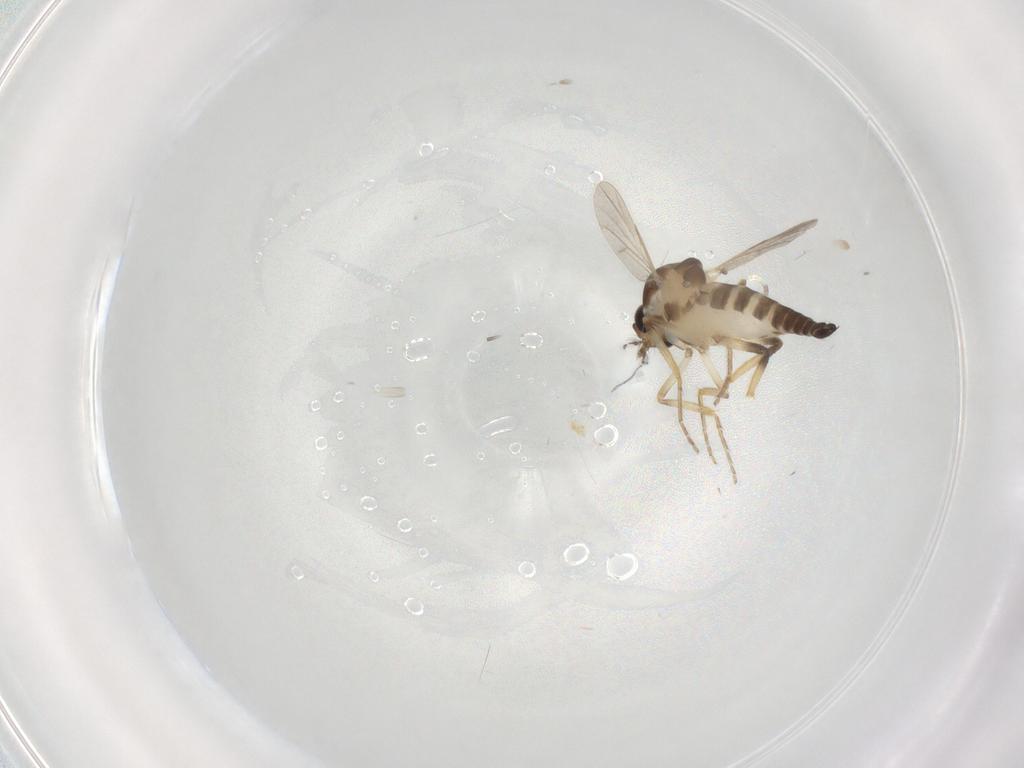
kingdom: Animalia
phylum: Arthropoda
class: Insecta
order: Diptera
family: Ceratopogonidae
